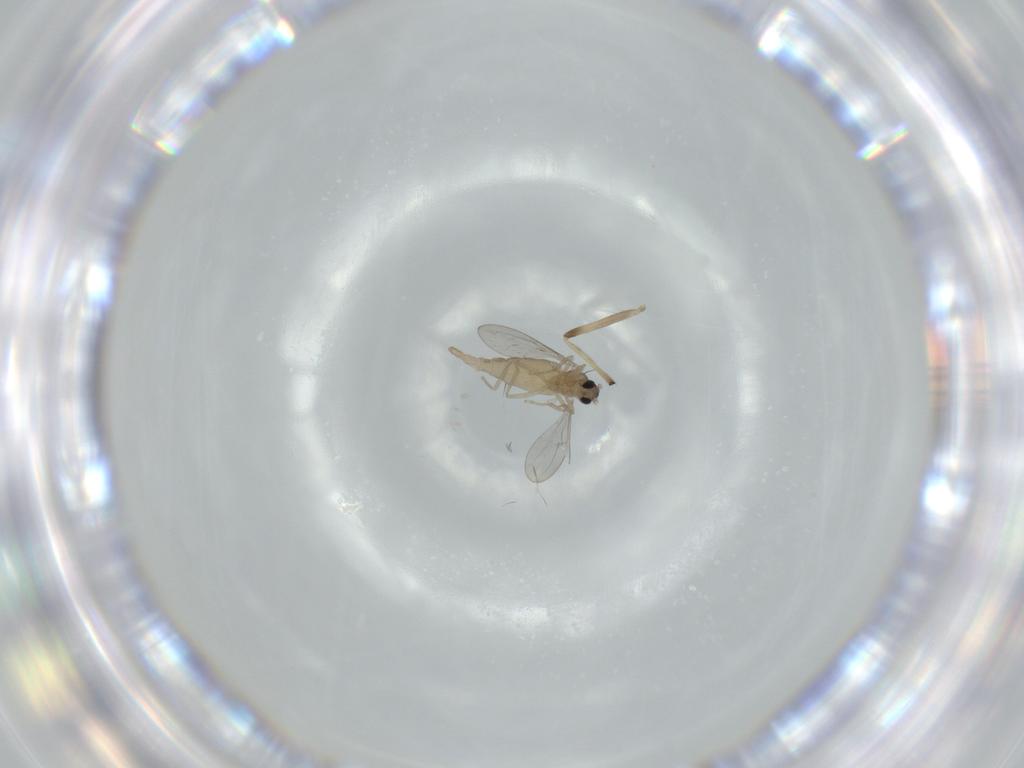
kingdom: Animalia
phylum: Arthropoda
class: Insecta
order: Diptera
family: Cecidomyiidae
